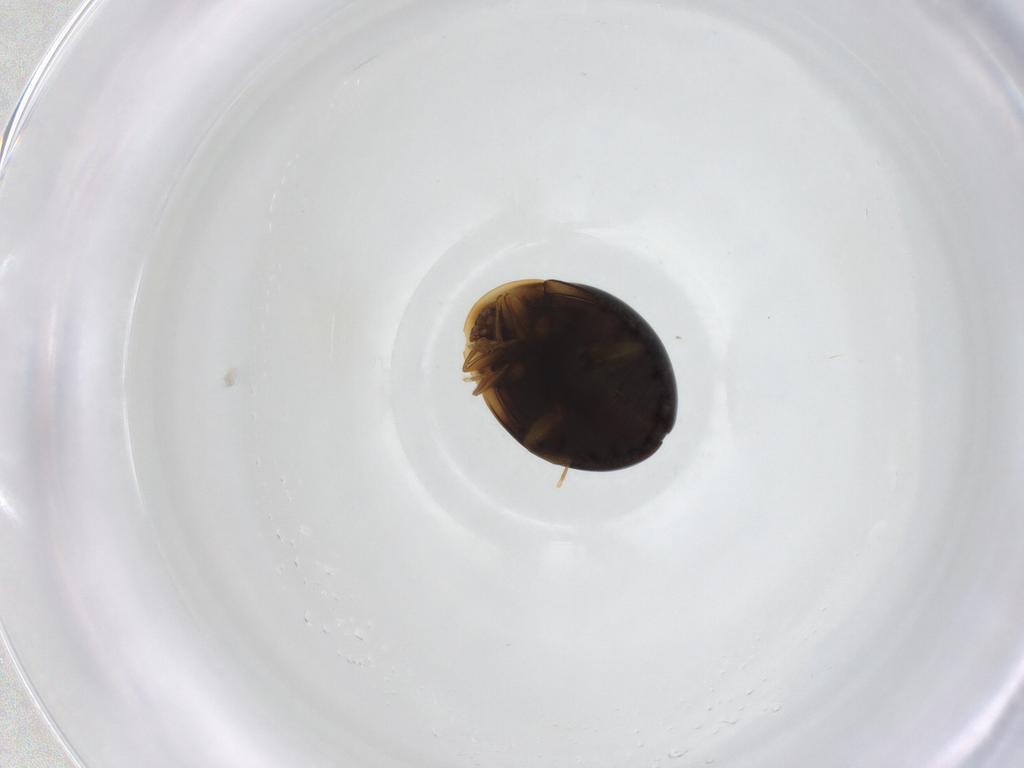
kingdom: Animalia
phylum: Arthropoda
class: Insecta
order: Coleoptera
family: Corylophidae
